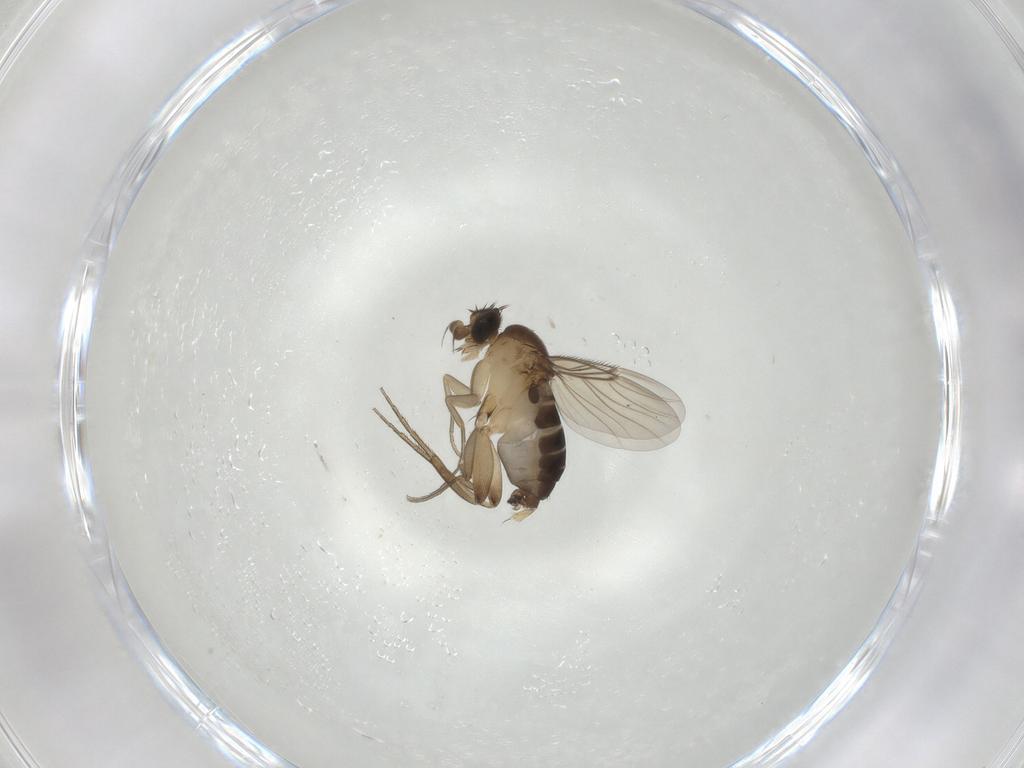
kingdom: Animalia
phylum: Arthropoda
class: Insecta
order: Diptera
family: Phoridae
